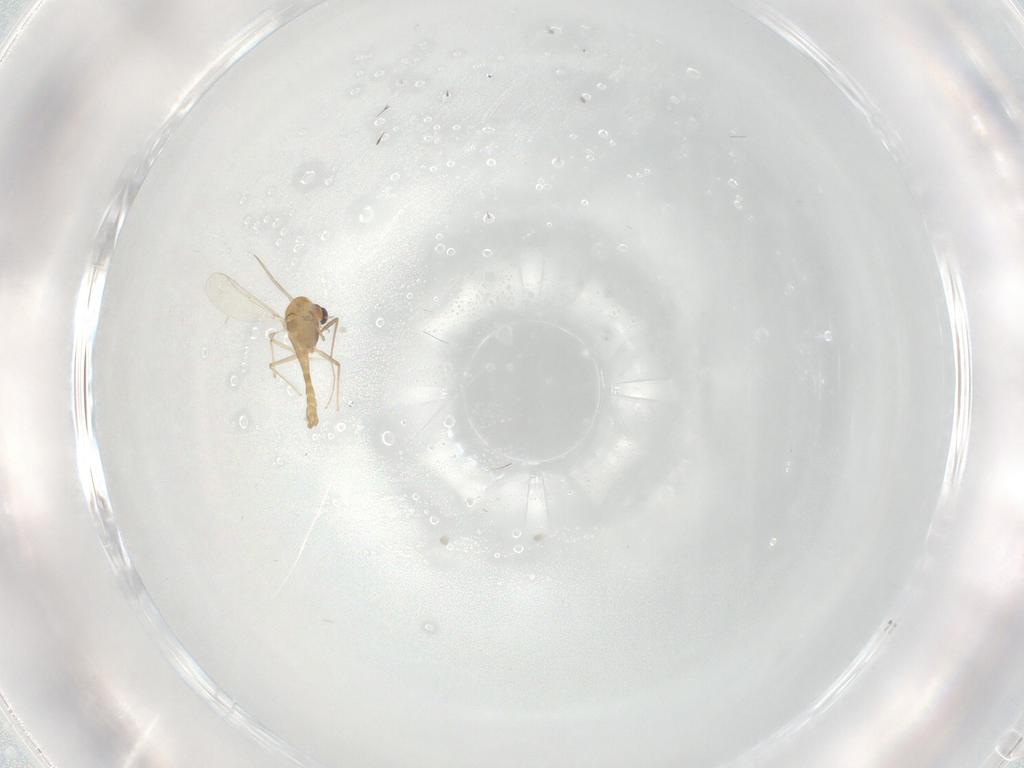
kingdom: Animalia
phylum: Arthropoda
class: Insecta
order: Diptera
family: Chironomidae
